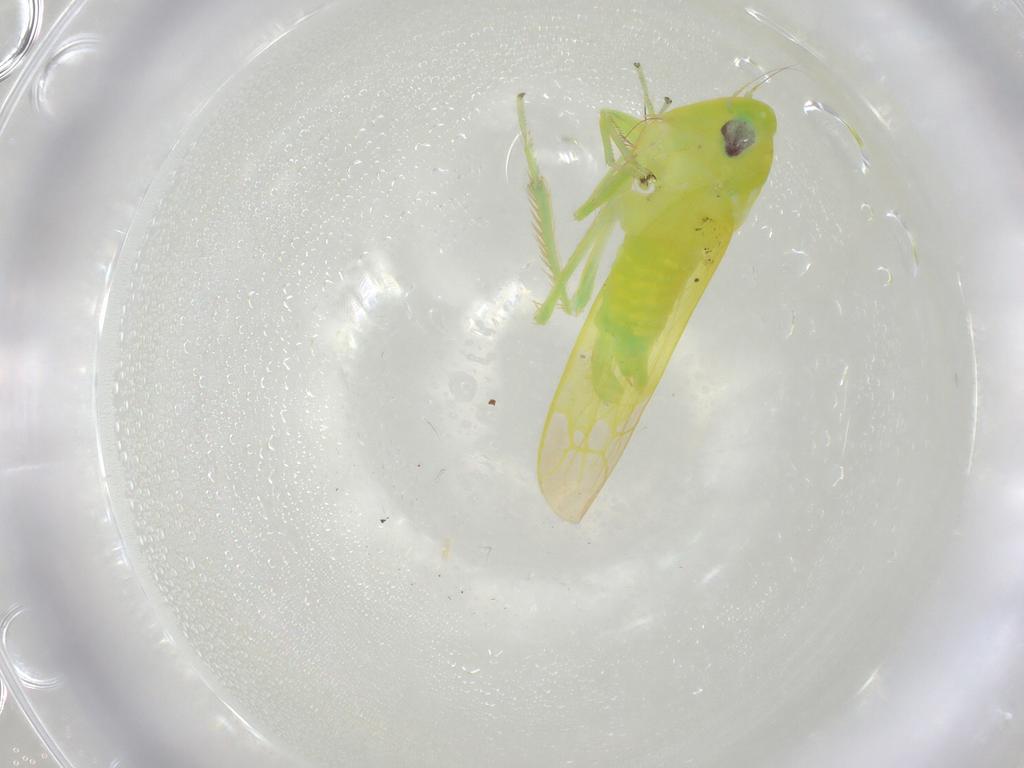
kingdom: Animalia
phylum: Arthropoda
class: Insecta
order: Hemiptera
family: Cicadellidae
